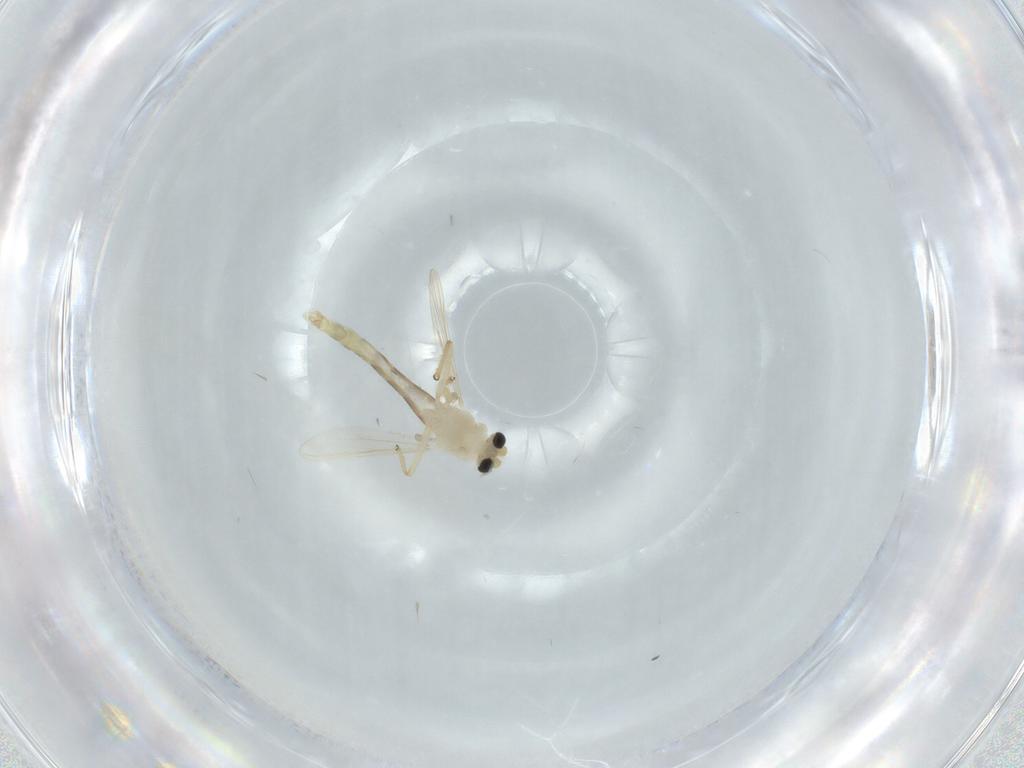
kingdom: Animalia
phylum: Arthropoda
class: Insecta
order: Diptera
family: Chironomidae
